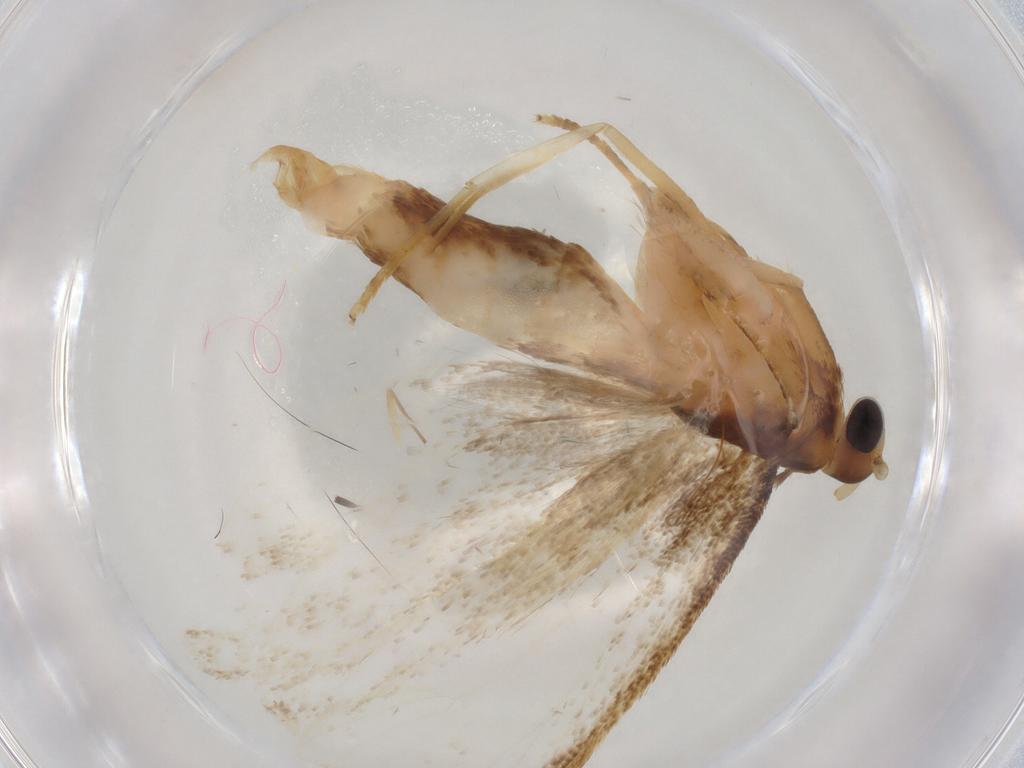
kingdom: Animalia
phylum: Arthropoda
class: Insecta
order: Lepidoptera
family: Lecithoceridae
